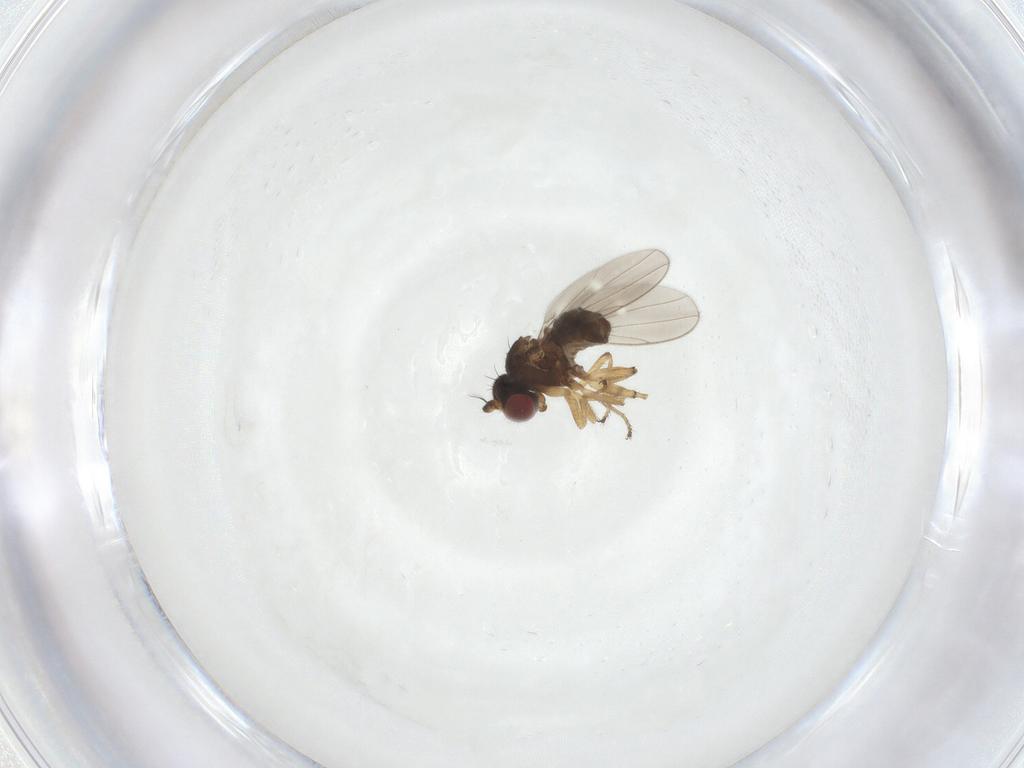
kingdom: Animalia
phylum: Arthropoda
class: Insecta
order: Diptera
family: Ephydridae
